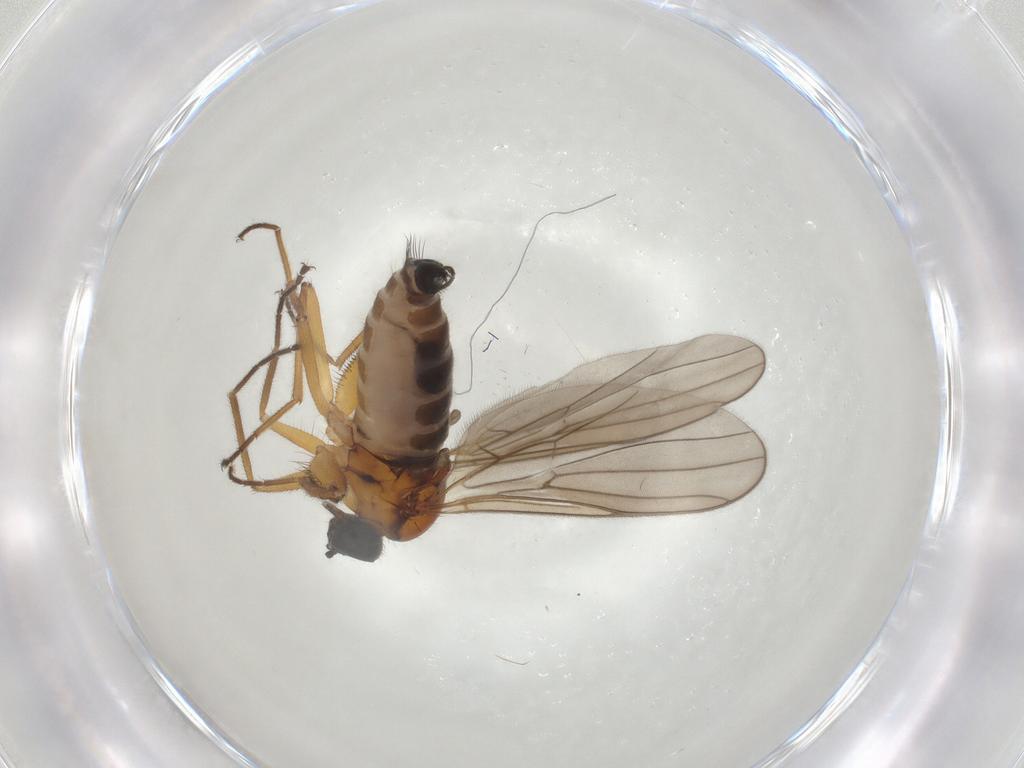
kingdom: Animalia
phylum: Arthropoda
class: Insecta
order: Diptera
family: Hybotidae
